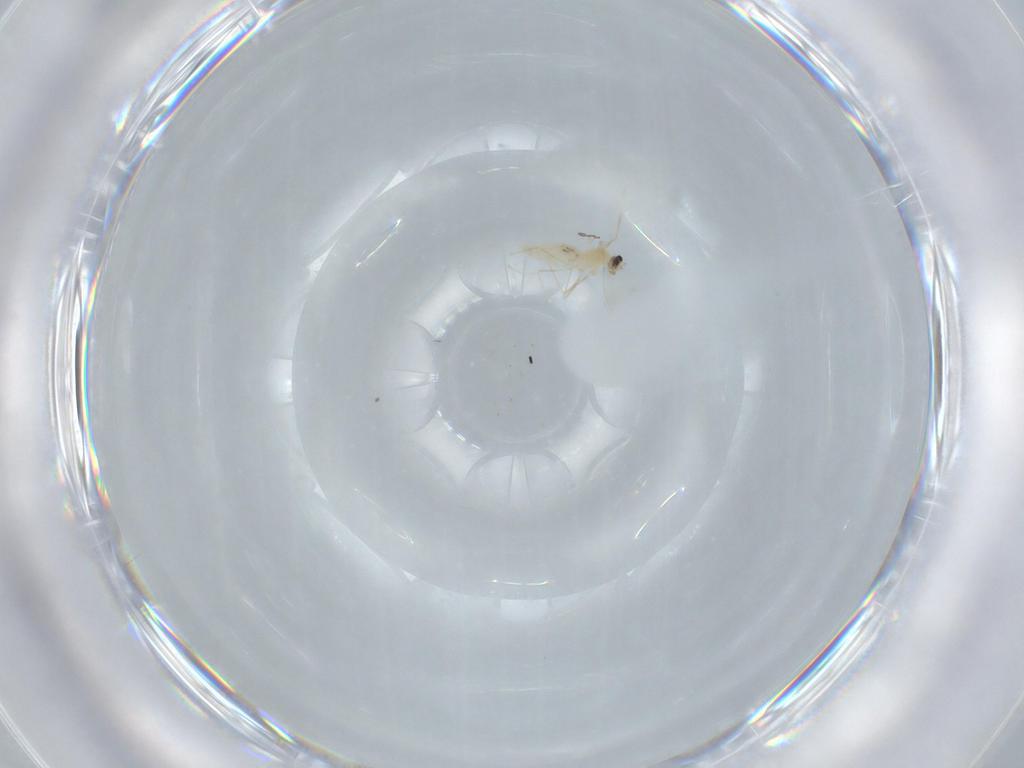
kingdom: Animalia
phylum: Arthropoda
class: Insecta
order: Diptera
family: Cecidomyiidae
